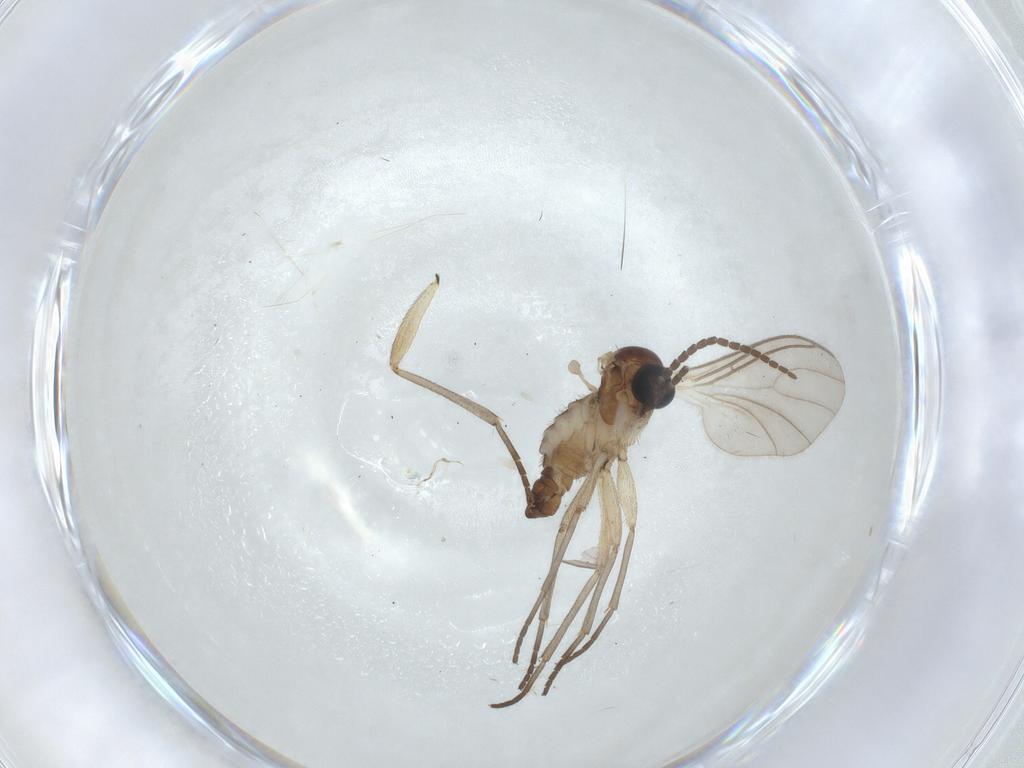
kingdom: Animalia
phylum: Arthropoda
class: Insecta
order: Diptera
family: Sciaridae
